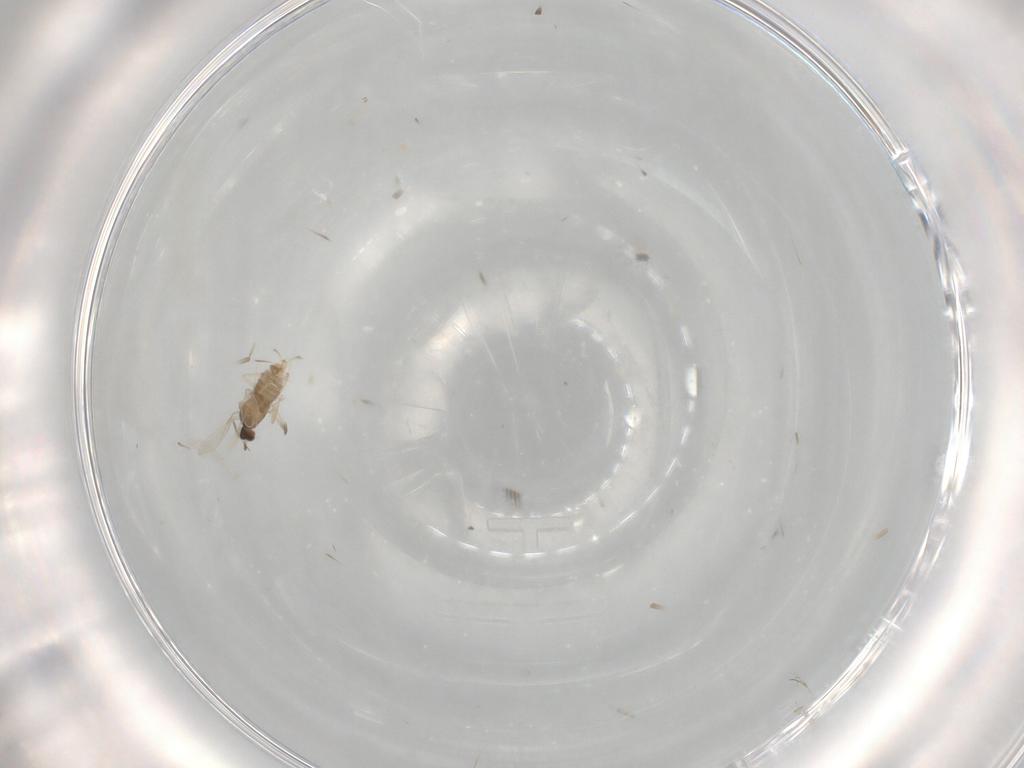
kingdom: Animalia
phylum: Arthropoda
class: Insecta
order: Diptera
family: Cecidomyiidae
